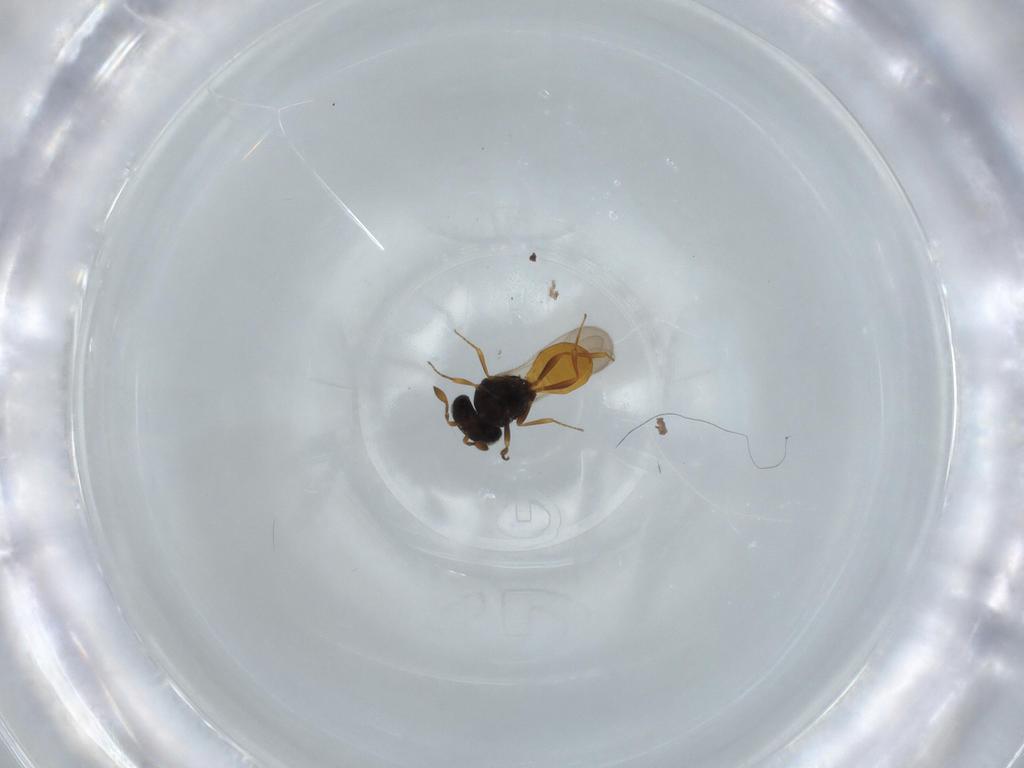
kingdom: Animalia
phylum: Arthropoda
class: Insecta
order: Hymenoptera
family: Scelionidae
